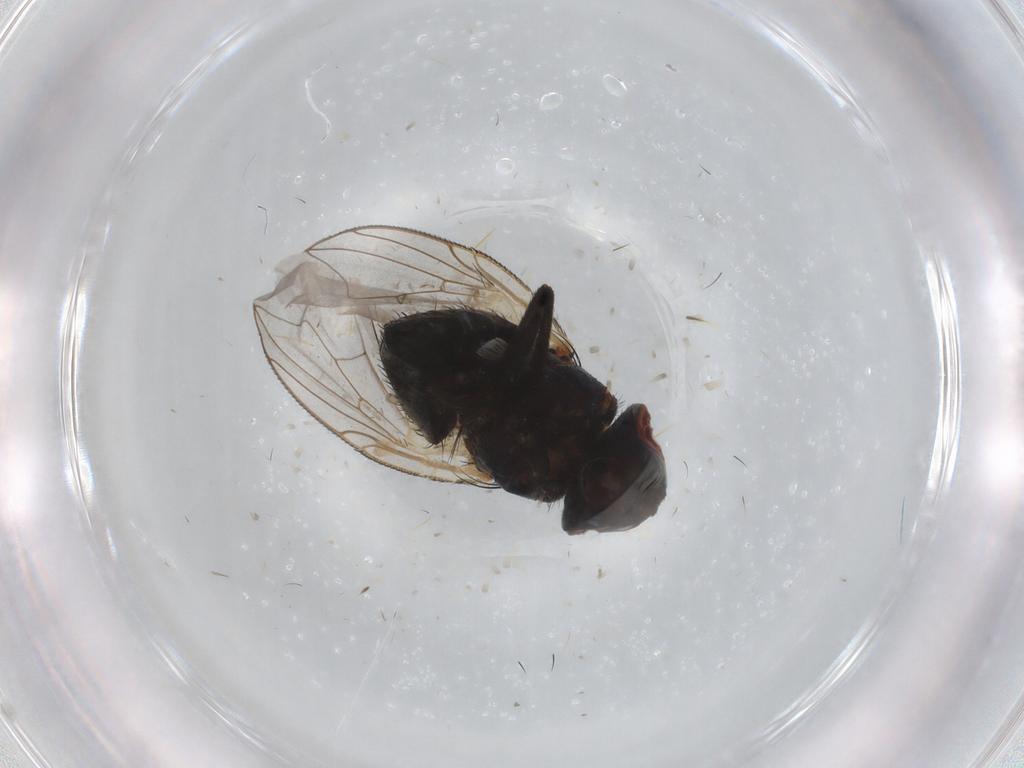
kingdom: Animalia
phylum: Arthropoda
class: Insecta
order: Diptera
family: Sarcophagidae
